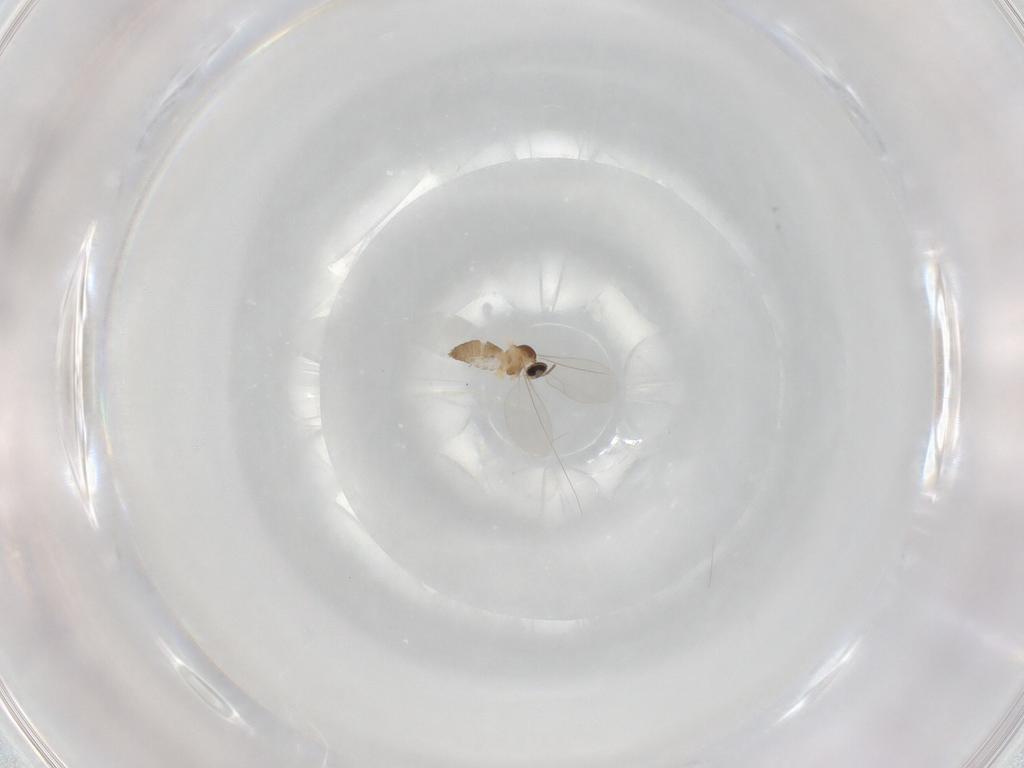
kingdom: Animalia
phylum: Arthropoda
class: Insecta
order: Diptera
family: Cecidomyiidae
